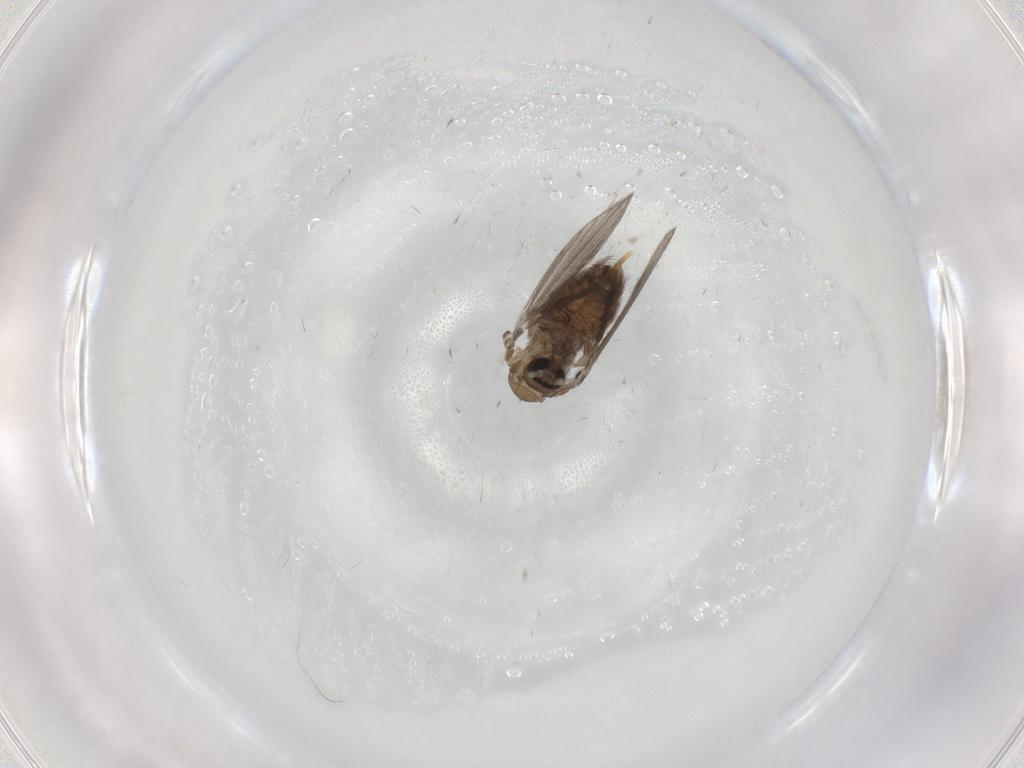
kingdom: Animalia
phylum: Arthropoda
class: Insecta
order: Diptera
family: Psychodidae
